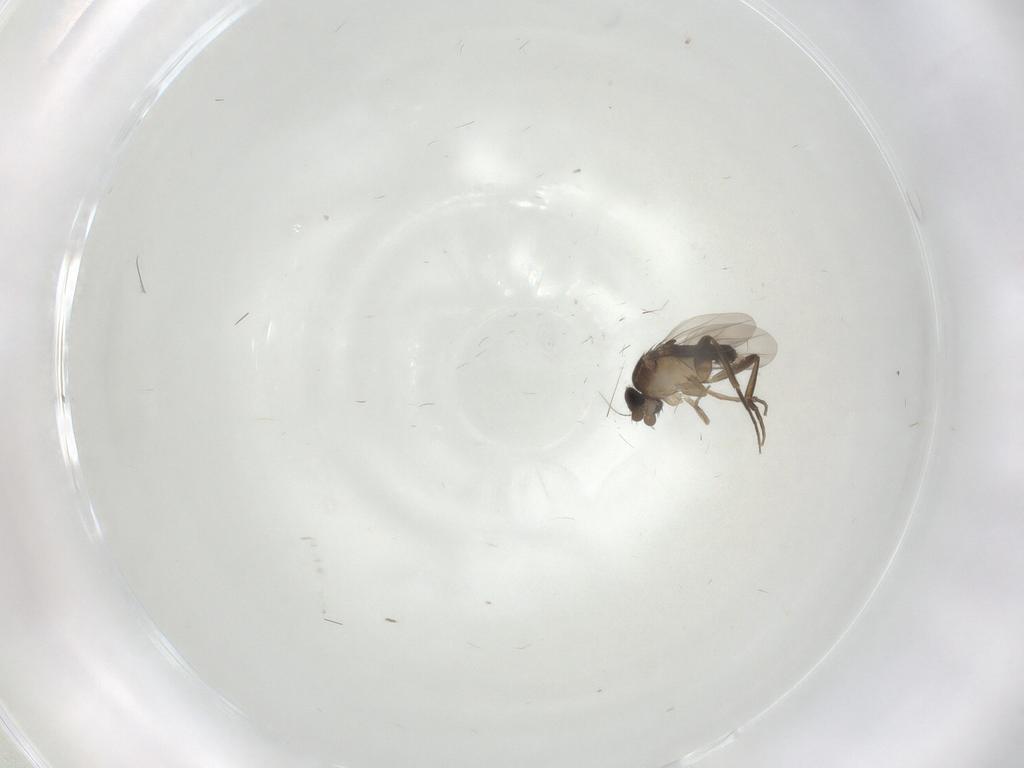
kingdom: Animalia
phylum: Arthropoda
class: Insecta
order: Diptera
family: Phoridae
